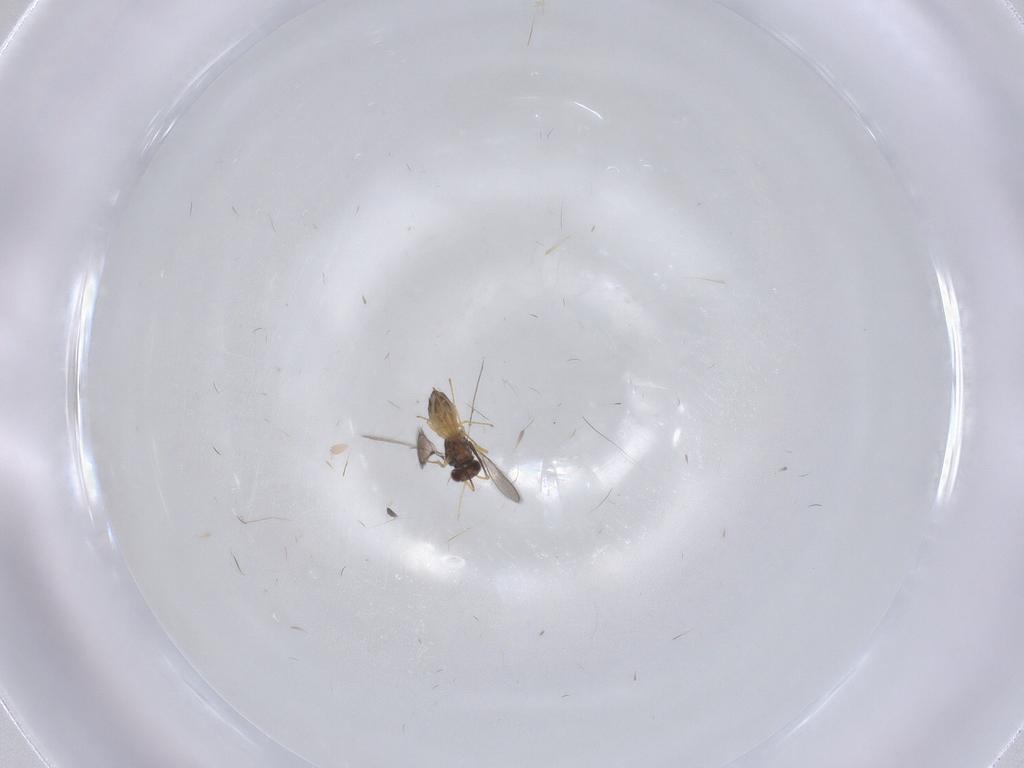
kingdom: Animalia
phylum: Arthropoda
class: Insecta
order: Hymenoptera
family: Mymaridae
